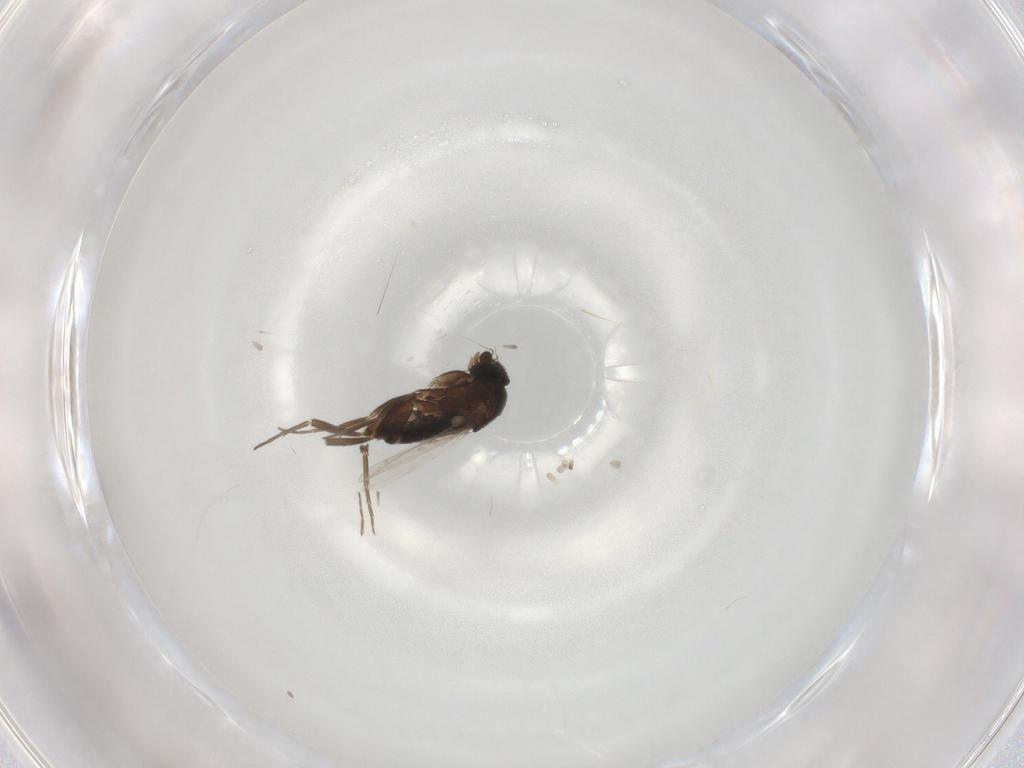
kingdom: Animalia
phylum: Arthropoda
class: Insecta
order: Diptera
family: Phoridae
